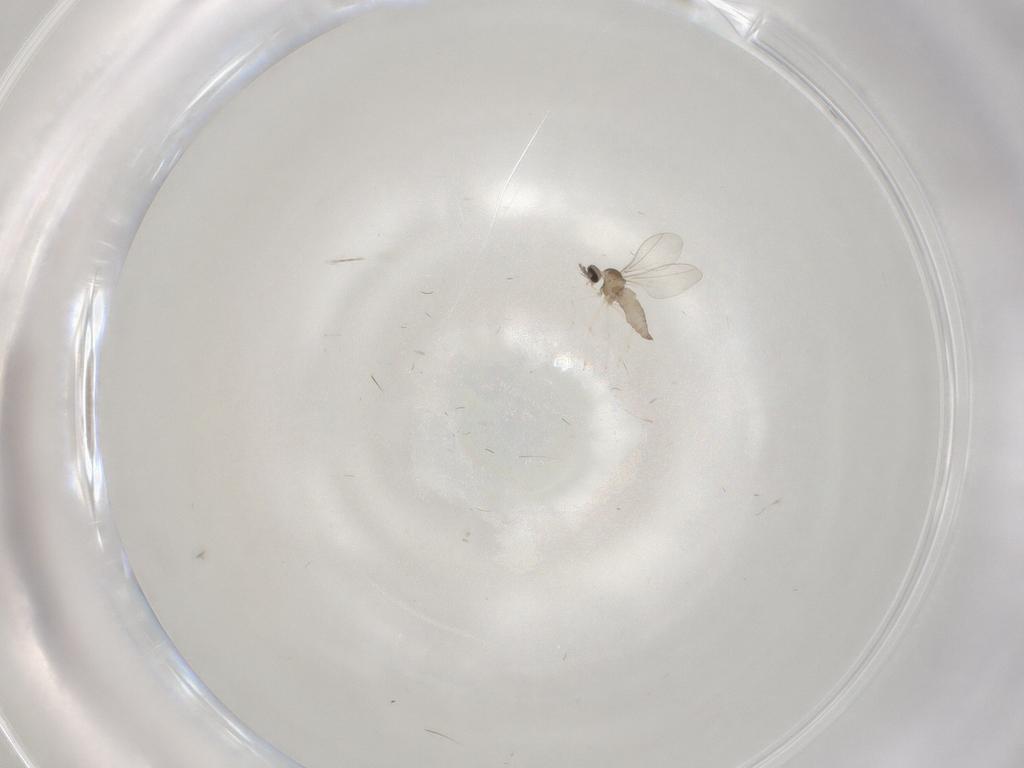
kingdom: Animalia
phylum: Arthropoda
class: Insecta
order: Diptera
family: Cecidomyiidae
